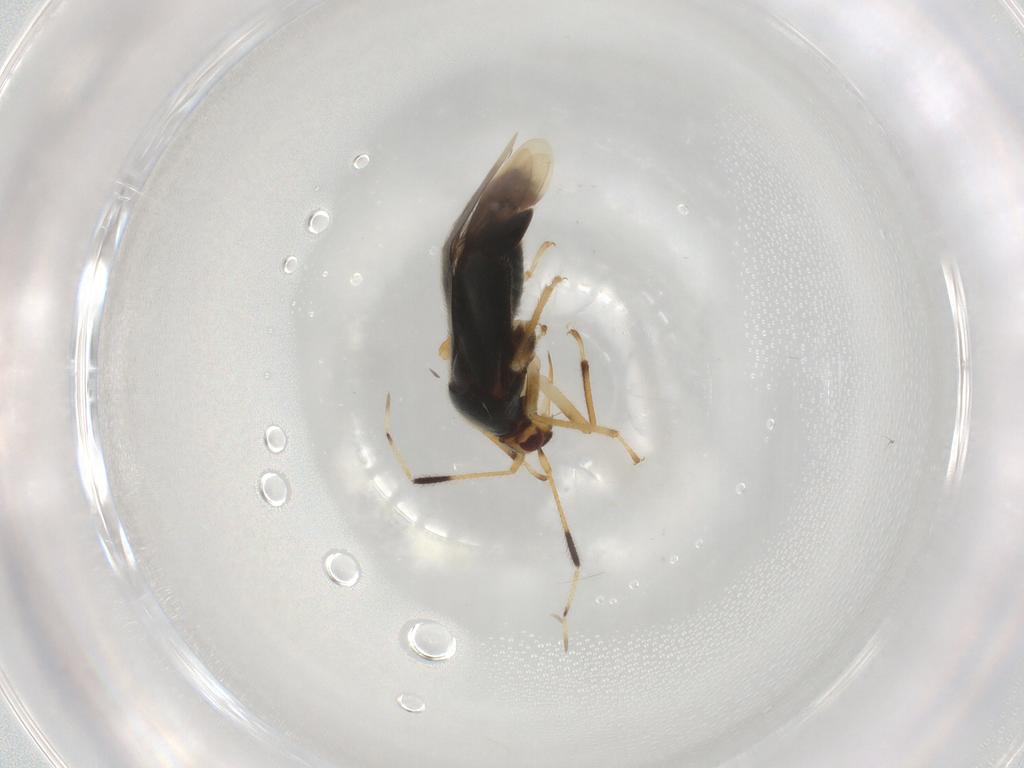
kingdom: Animalia
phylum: Arthropoda
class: Insecta
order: Hemiptera
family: Miridae
